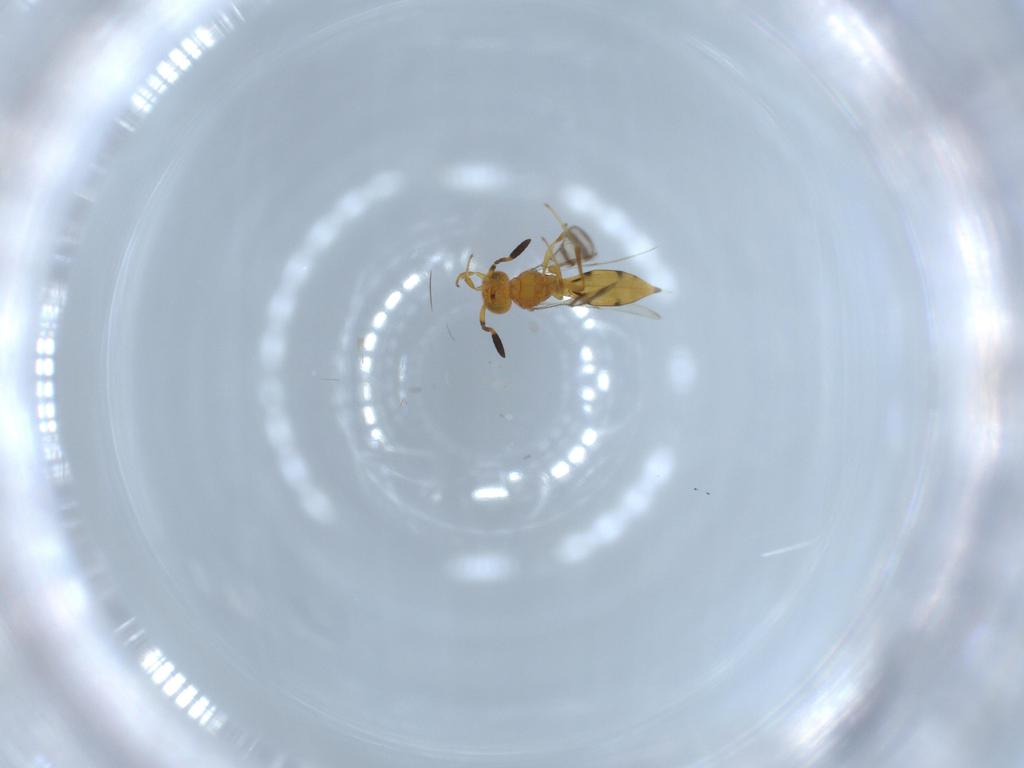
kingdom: Animalia
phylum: Arthropoda
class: Insecta
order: Hymenoptera
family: Scelionidae
